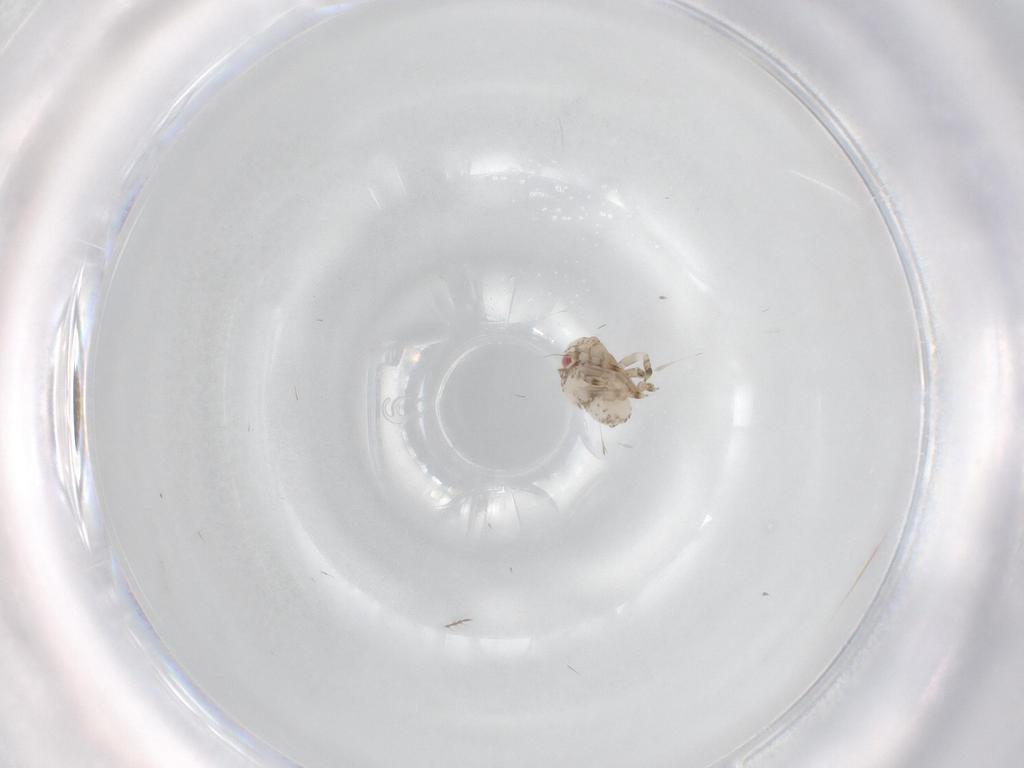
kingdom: Animalia
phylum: Arthropoda
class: Insecta
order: Hemiptera
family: Acanaloniidae
